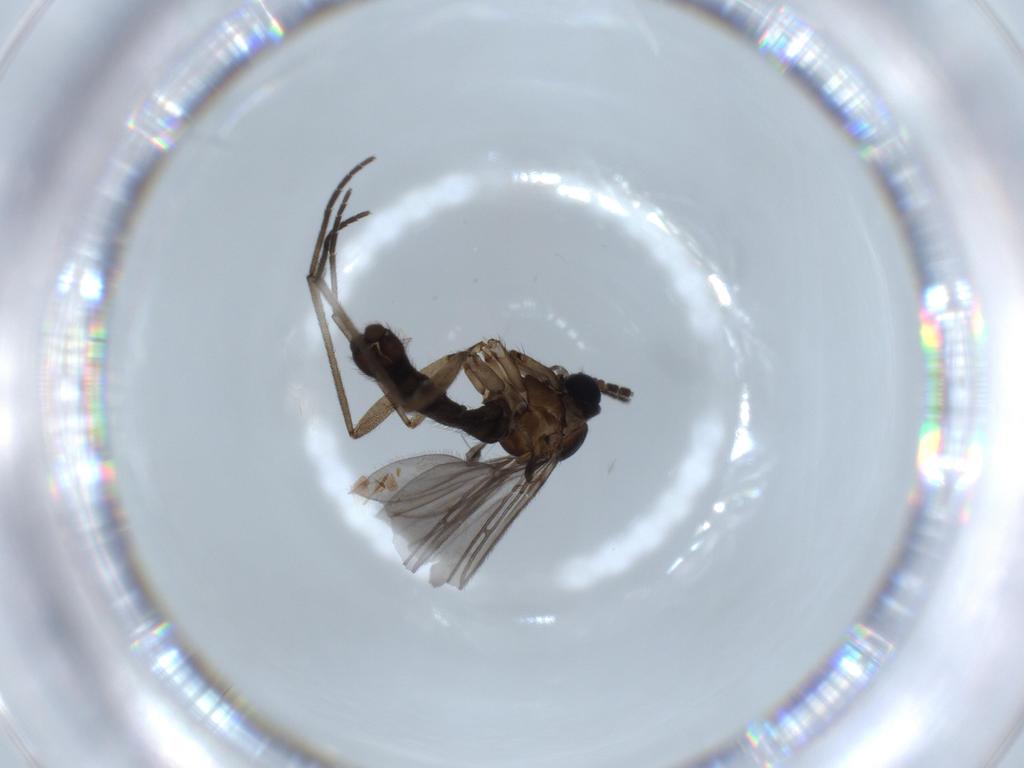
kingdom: Animalia
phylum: Arthropoda
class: Insecta
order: Diptera
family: Sciaridae
